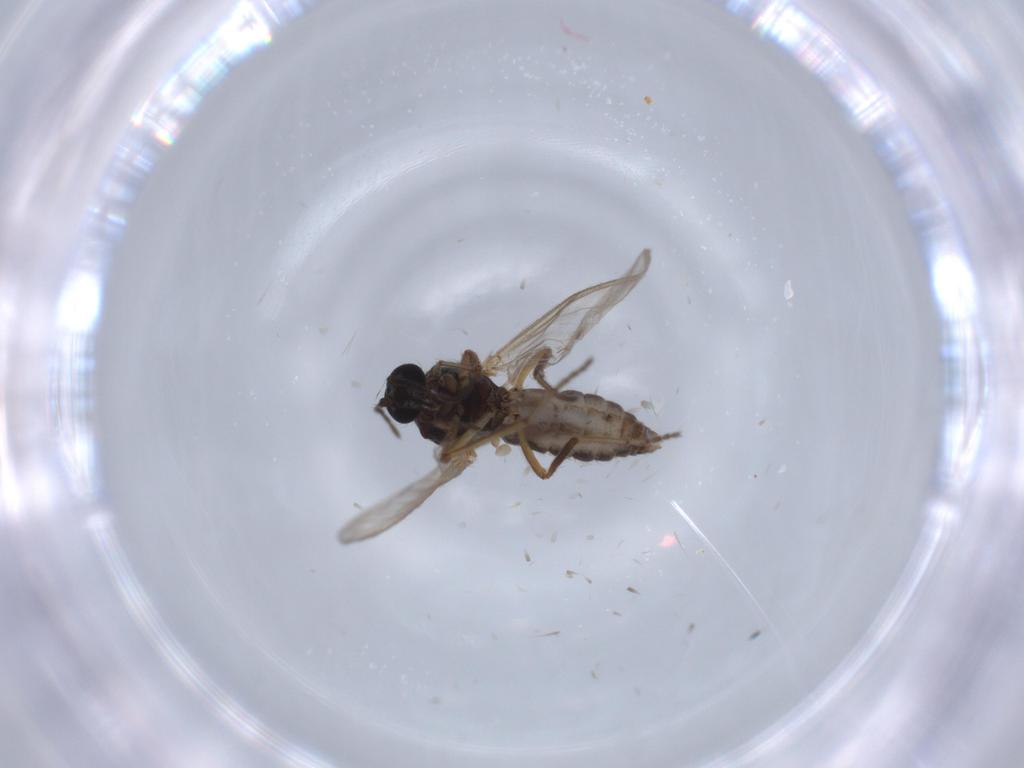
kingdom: Animalia
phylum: Arthropoda
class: Insecta
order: Diptera
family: Ceratopogonidae
